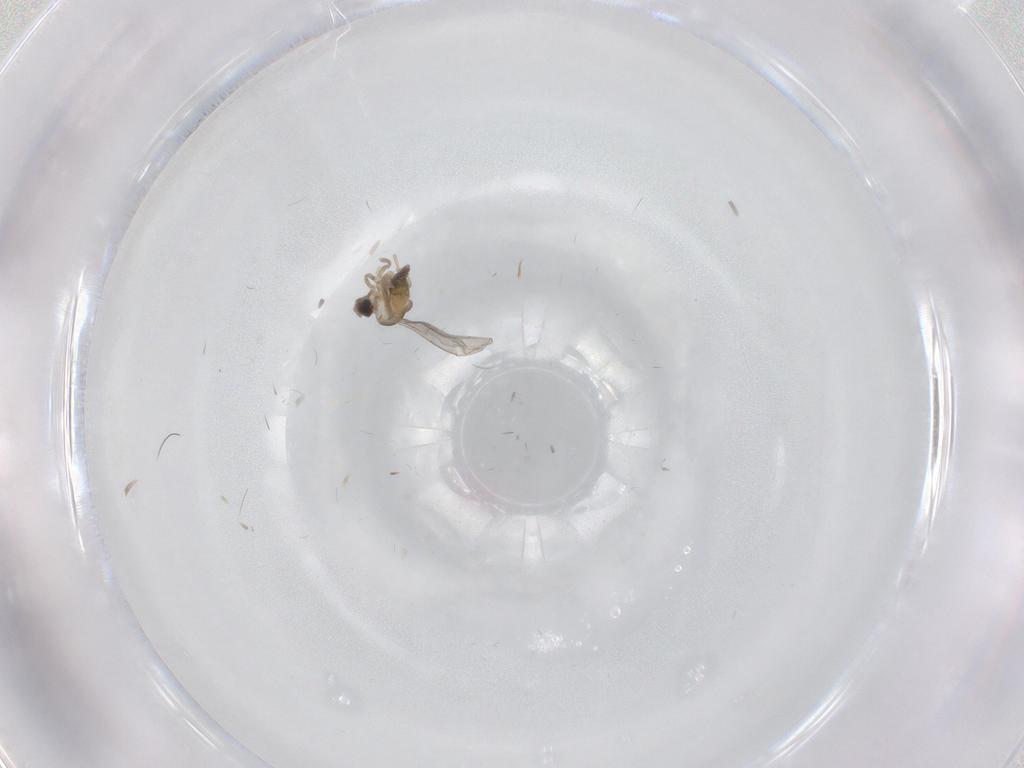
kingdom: Animalia
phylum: Arthropoda
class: Insecta
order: Diptera
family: Cecidomyiidae
